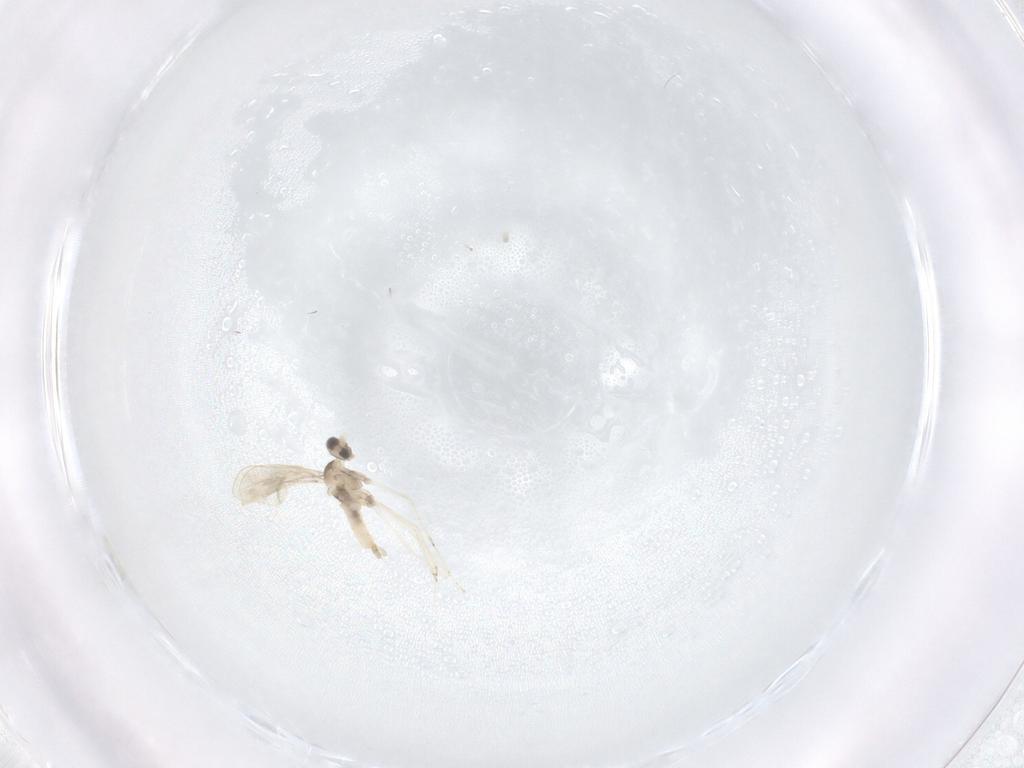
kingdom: Animalia
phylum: Arthropoda
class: Insecta
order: Diptera
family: Cecidomyiidae
